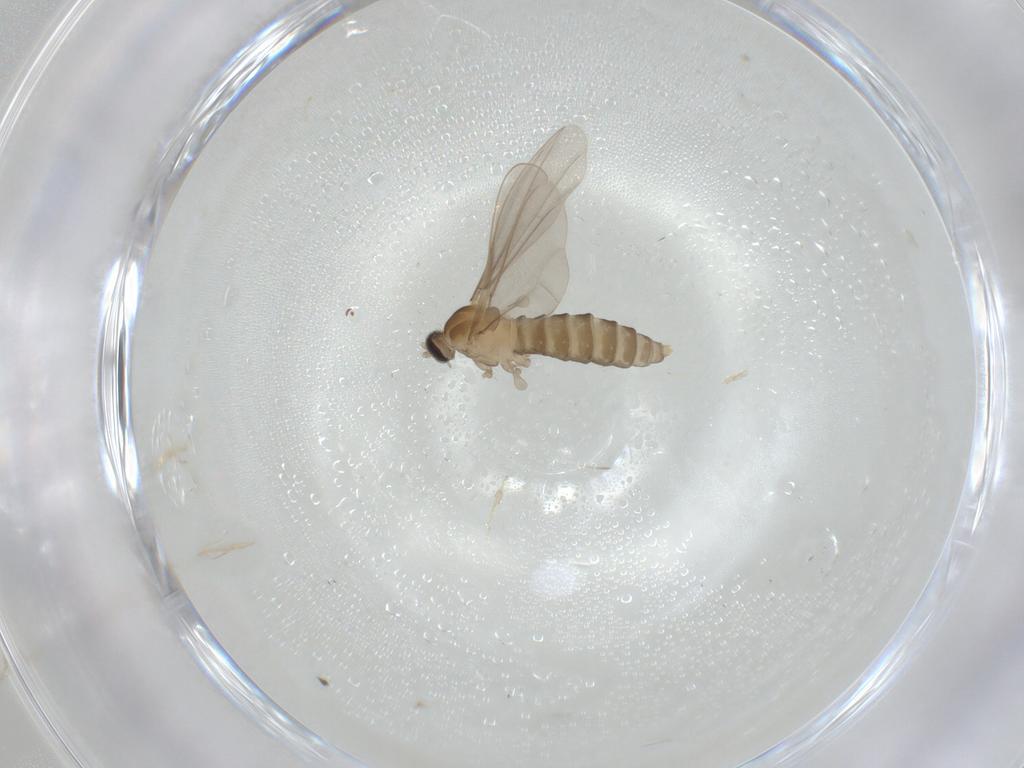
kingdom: Animalia
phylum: Arthropoda
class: Insecta
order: Diptera
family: Cecidomyiidae
